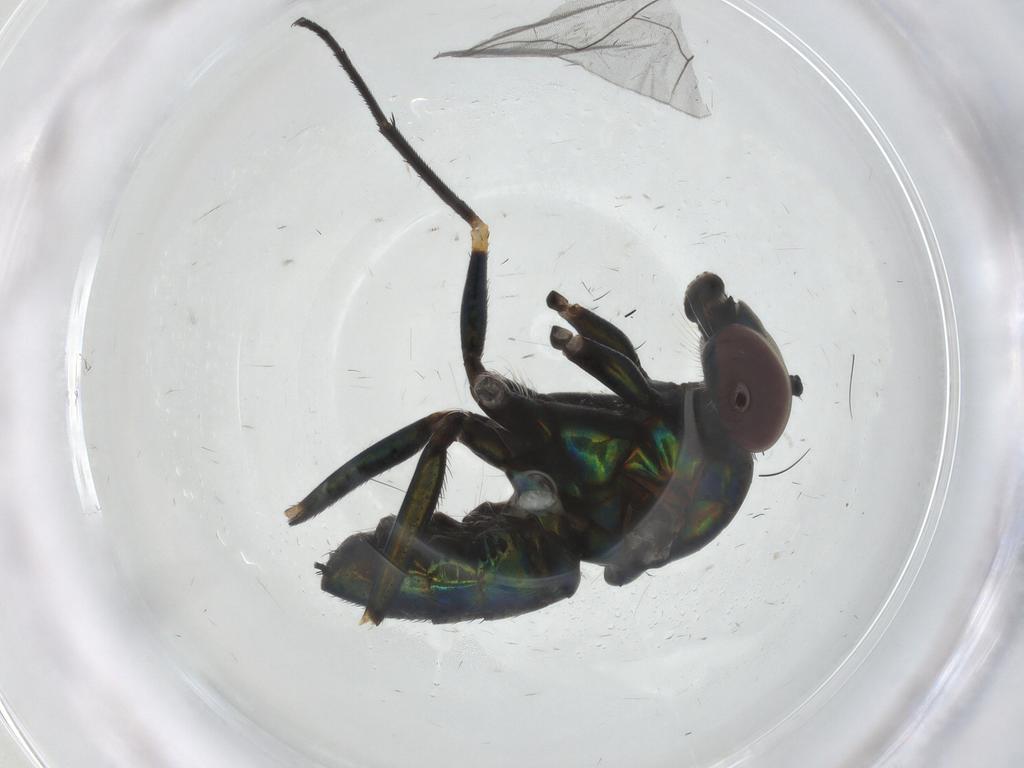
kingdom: Animalia
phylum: Arthropoda
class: Insecta
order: Diptera
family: Dolichopodidae
